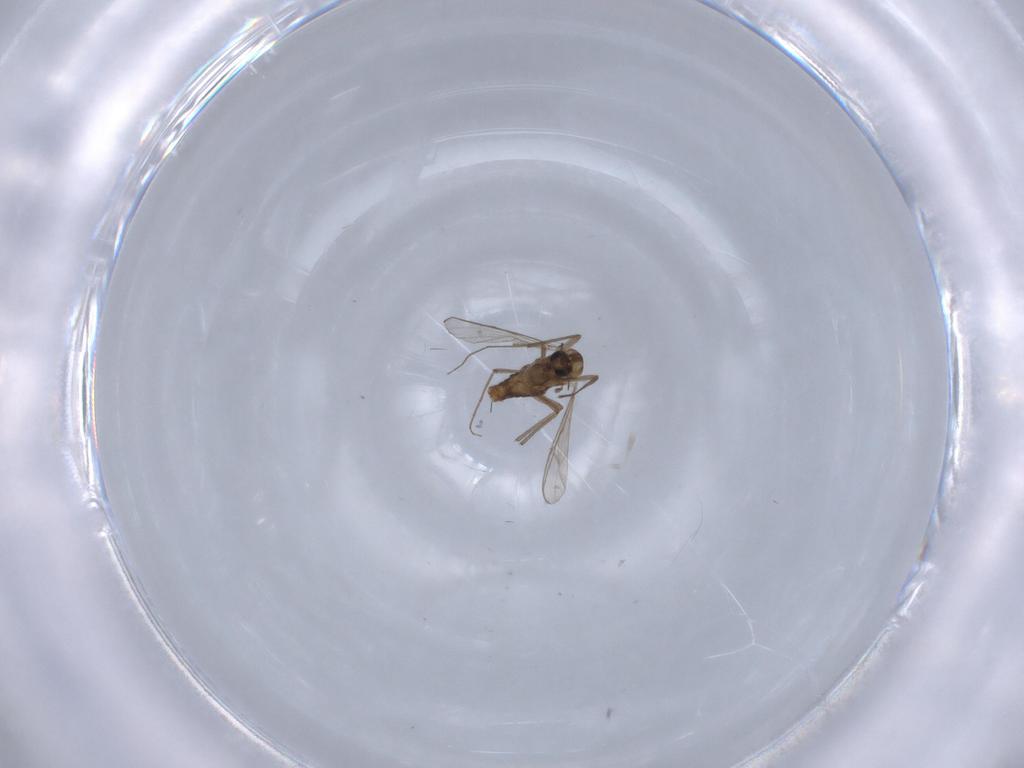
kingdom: Animalia
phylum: Arthropoda
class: Insecta
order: Diptera
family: Chironomidae
